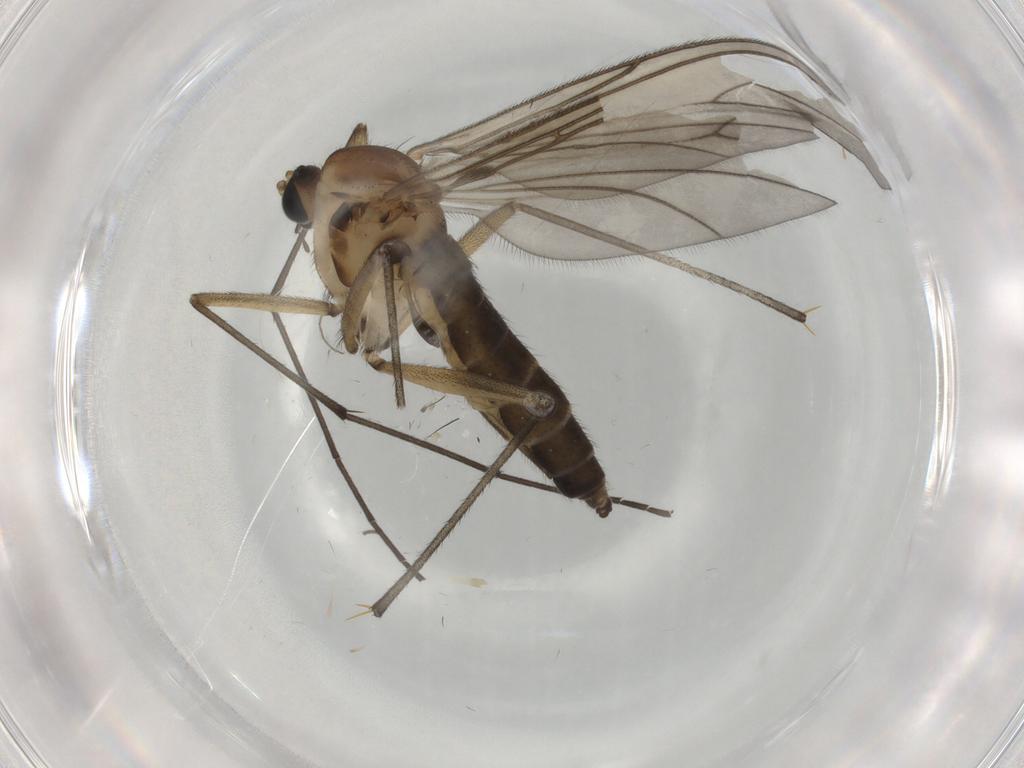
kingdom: Animalia
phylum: Arthropoda
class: Insecta
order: Diptera
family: Sciaridae
